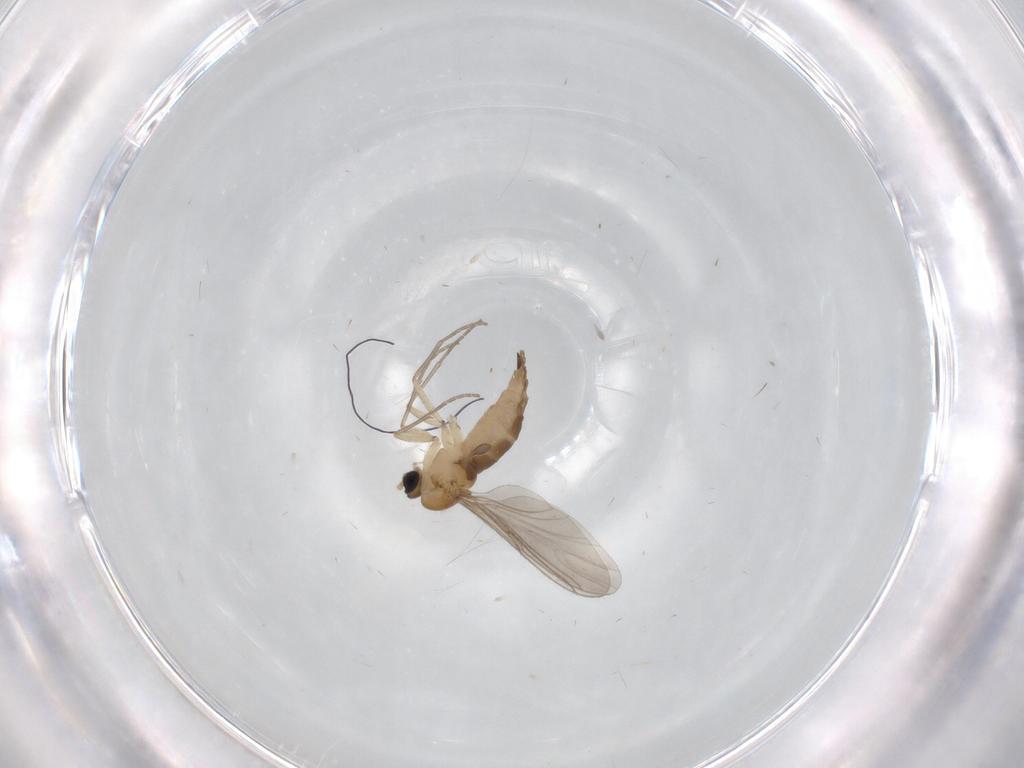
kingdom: Animalia
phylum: Arthropoda
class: Insecta
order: Diptera
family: Sciaridae
